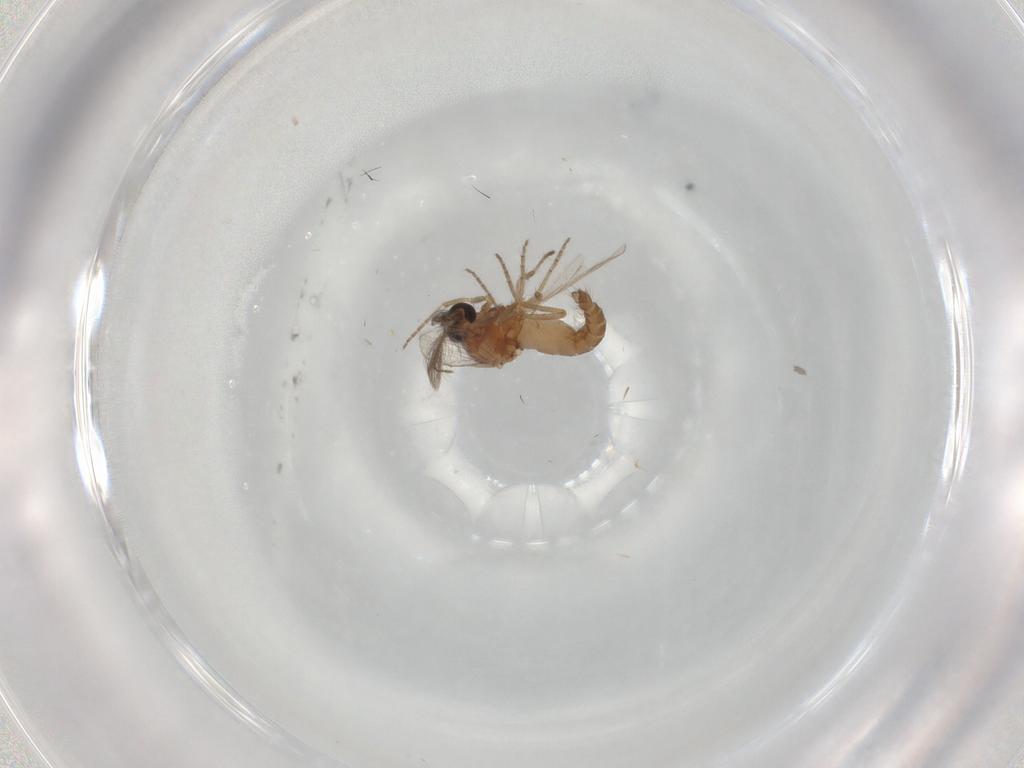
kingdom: Animalia
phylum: Arthropoda
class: Insecta
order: Diptera
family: Ceratopogonidae
